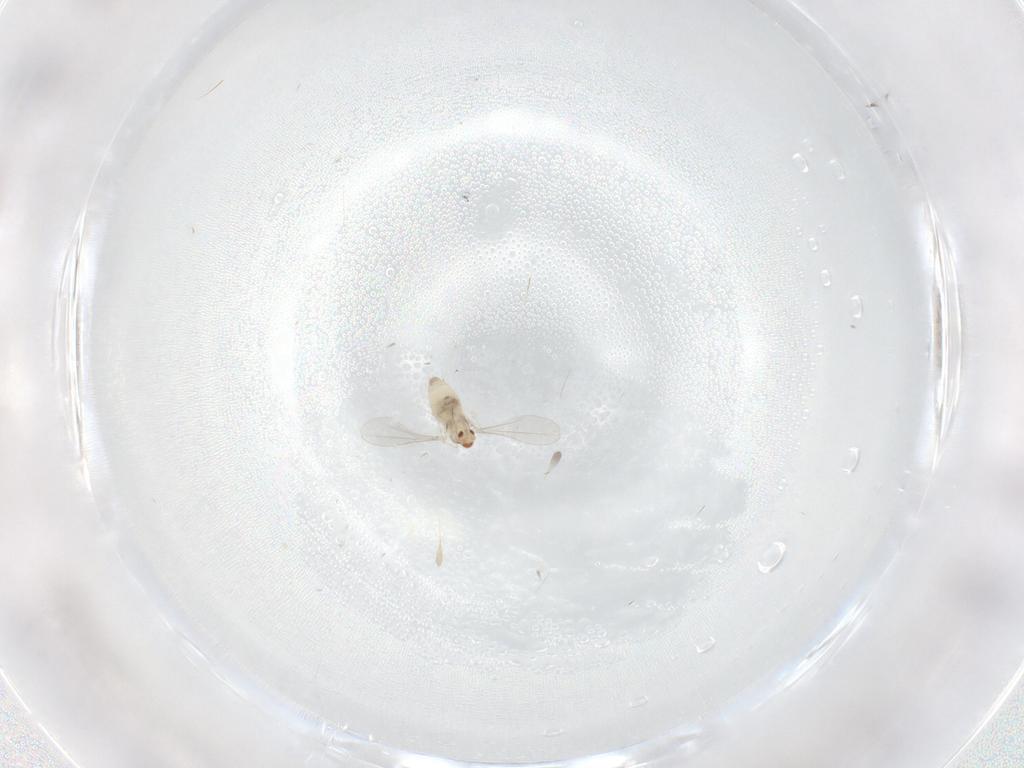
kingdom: Animalia
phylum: Arthropoda
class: Insecta
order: Diptera
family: Cecidomyiidae
